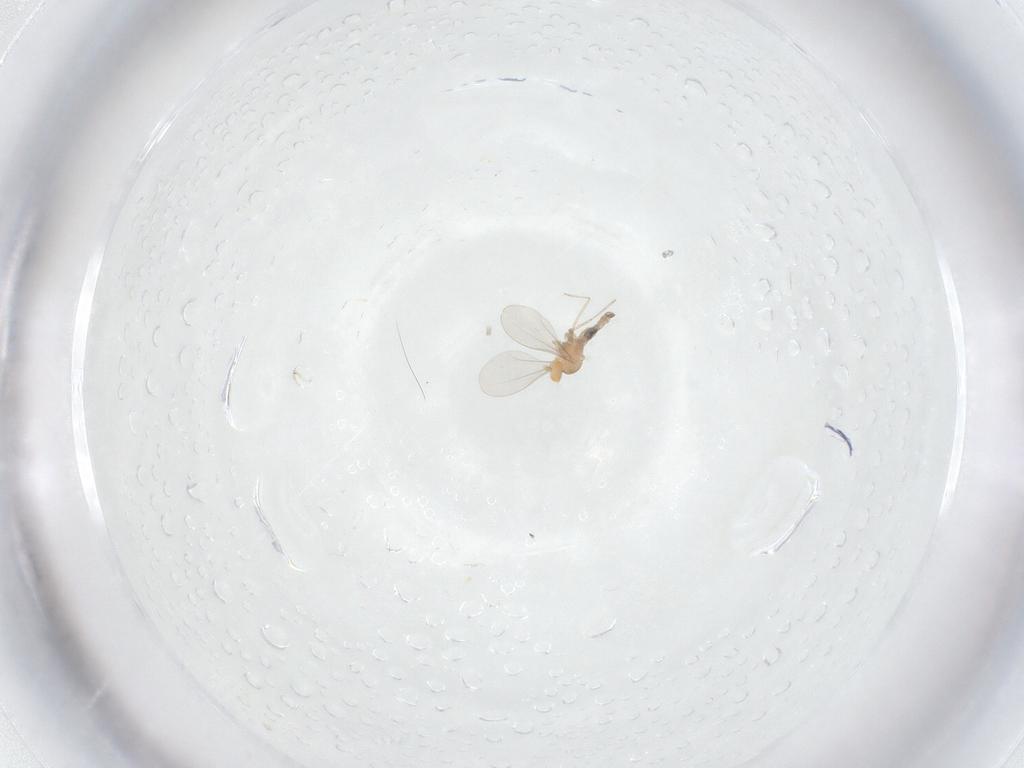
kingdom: Animalia
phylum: Arthropoda
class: Insecta
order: Diptera
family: Cecidomyiidae
